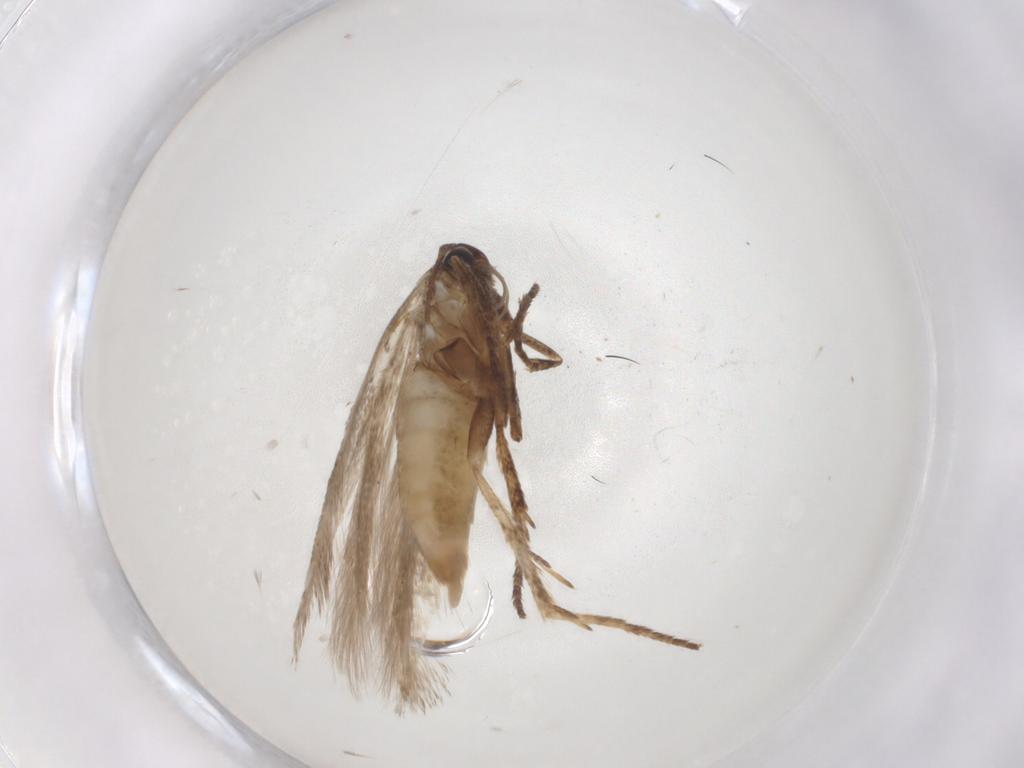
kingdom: Animalia
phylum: Arthropoda
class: Insecta
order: Lepidoptera
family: Gelechiidae
